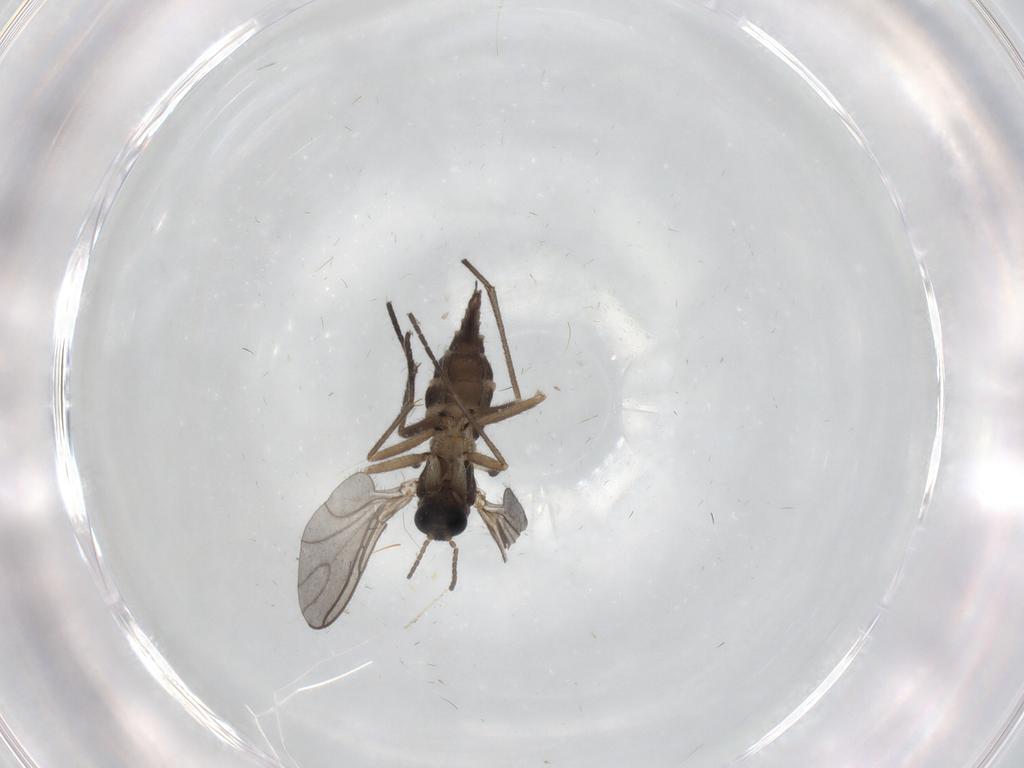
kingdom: Animalia
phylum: Arthropoda
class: Insecta
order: Diptera
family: Sciaridae
